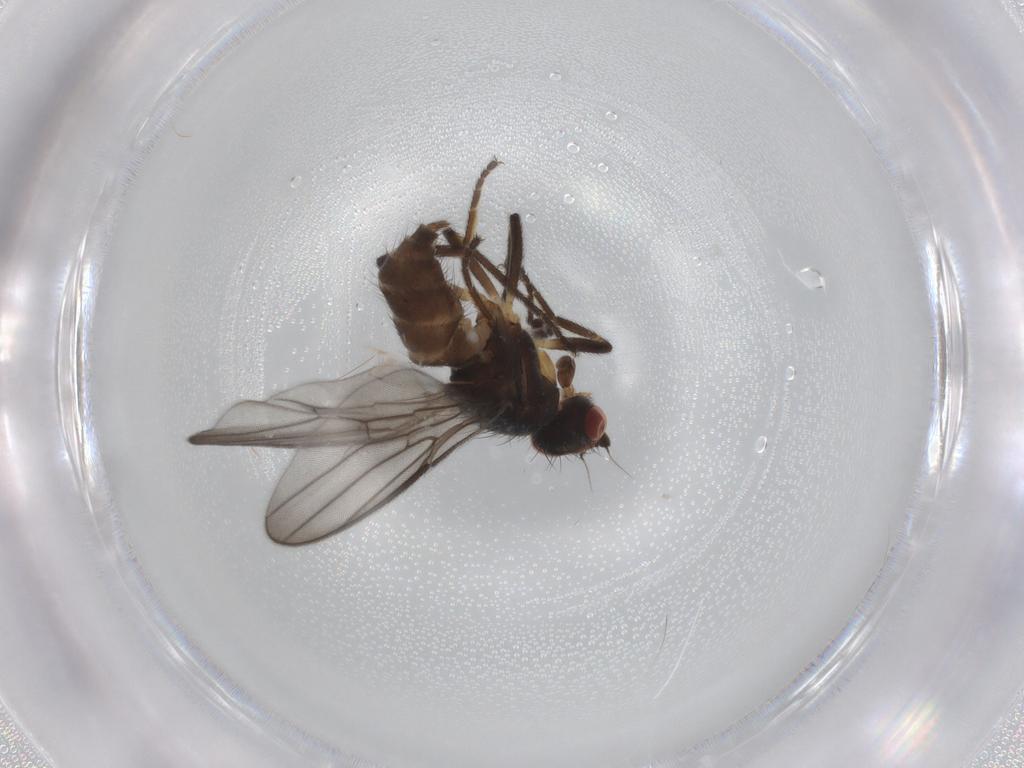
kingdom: Animalia
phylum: Arthropoda
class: Insecta
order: Diptera
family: Chloropidae
